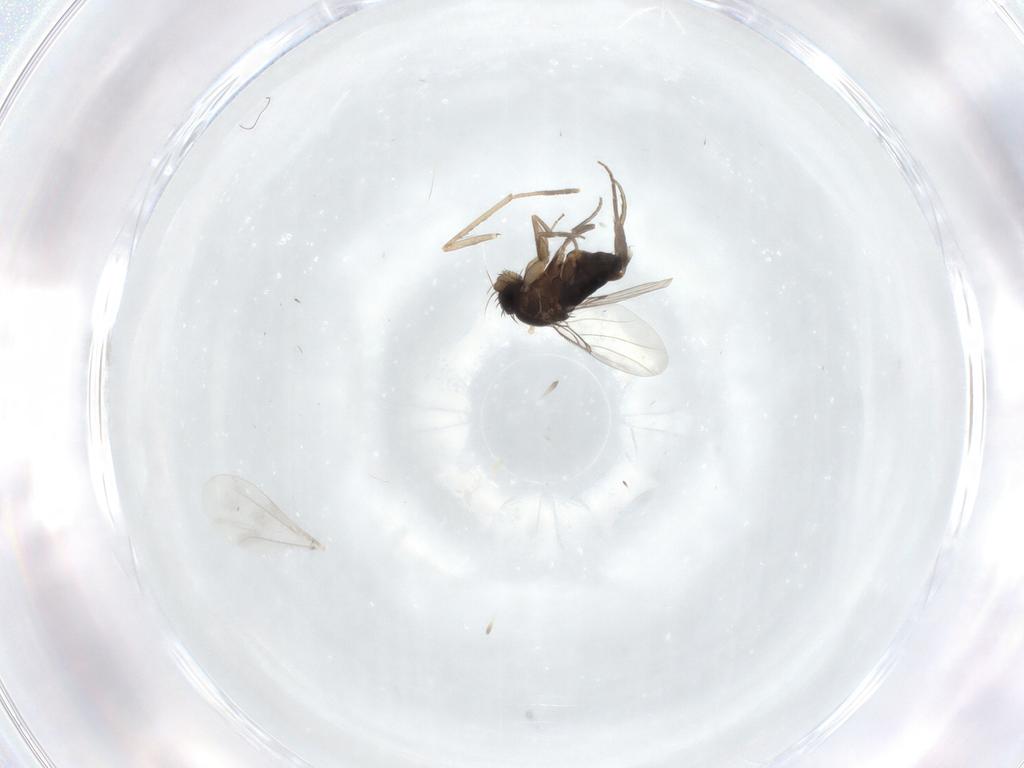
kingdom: Animalia
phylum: Arthropoda
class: Insecta
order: Diptera
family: Phoridae
